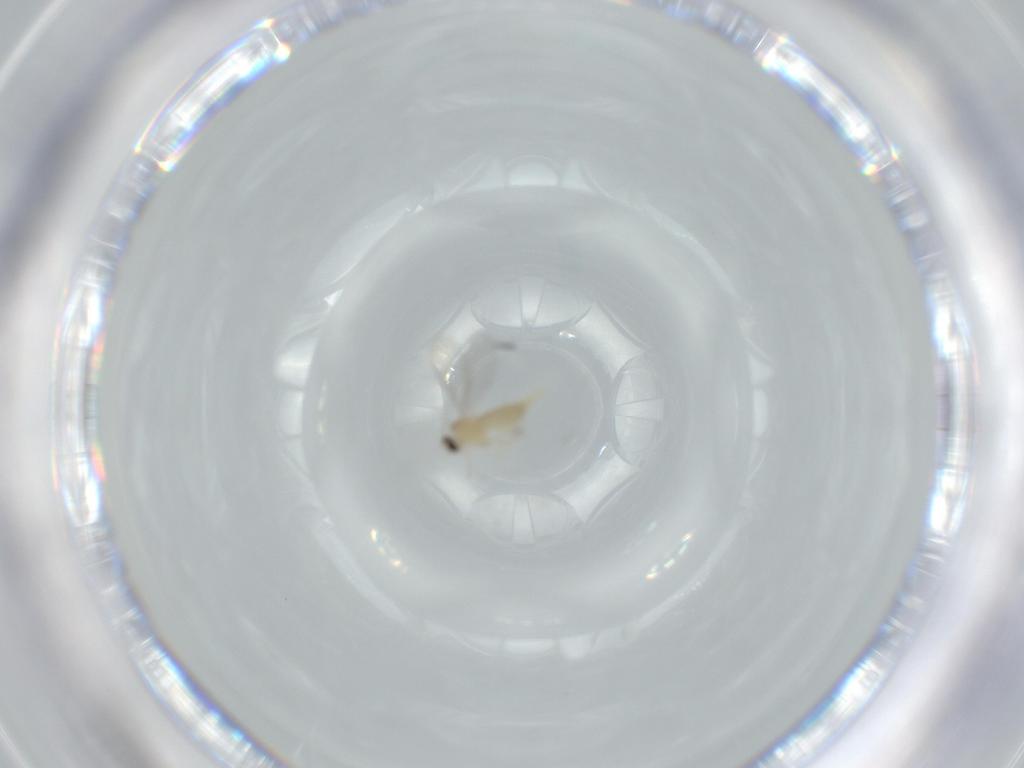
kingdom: Animalia
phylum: Arthropoda
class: Insecta
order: Diptera
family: Cecidomyiidae
